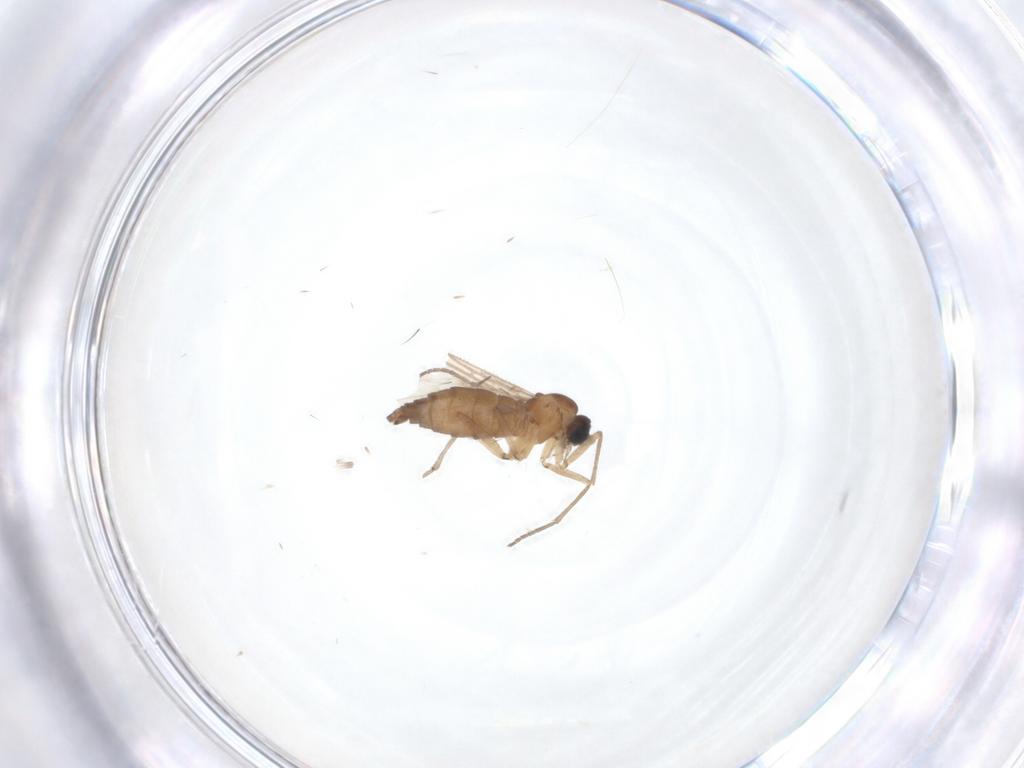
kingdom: Animalia
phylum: Arthropoda
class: Insecta
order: Diptera
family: Sciaridae
